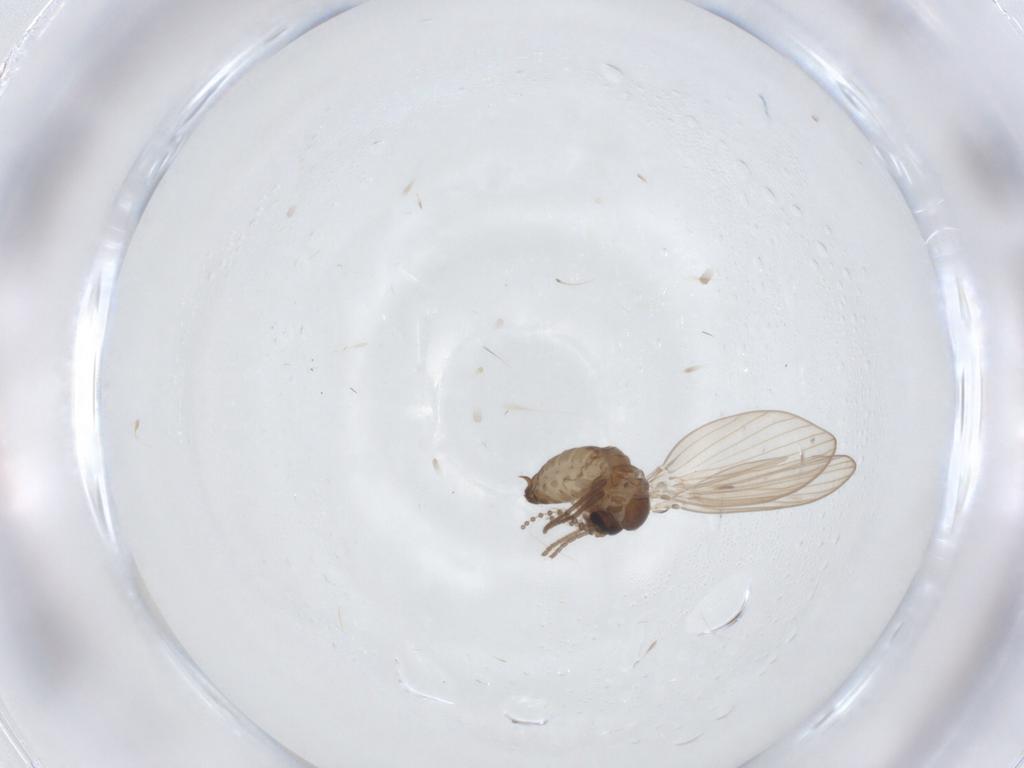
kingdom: Animalia
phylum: Arthropoda
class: Insecta
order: Diptera
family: Psychodidae
